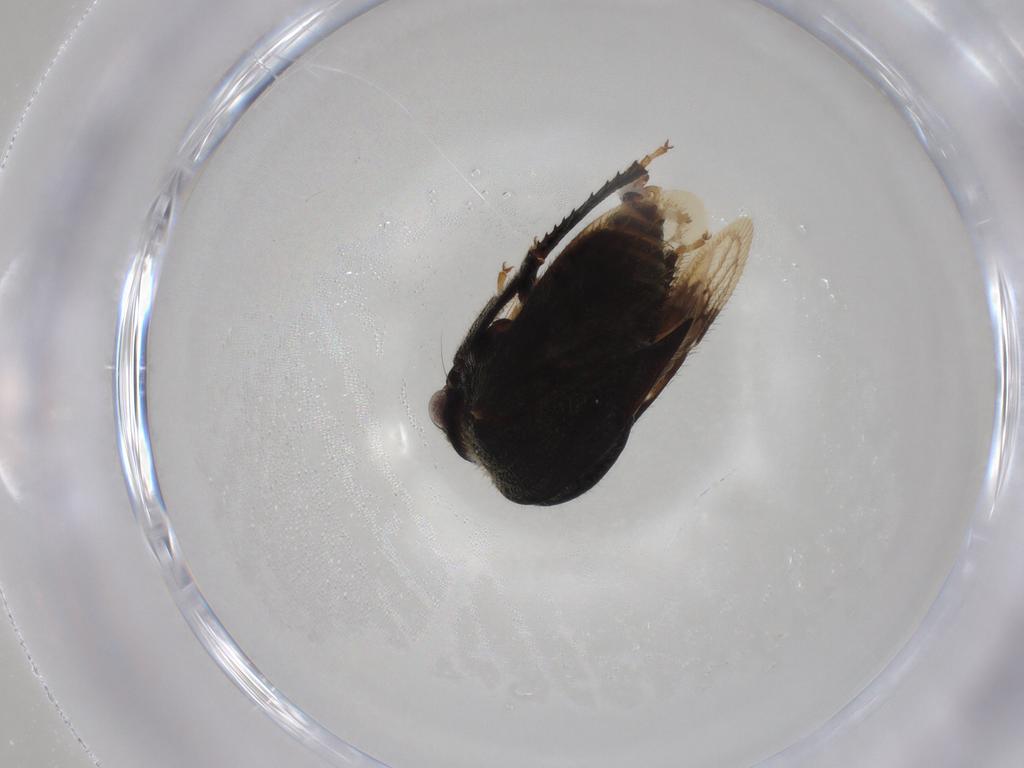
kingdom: Animalia
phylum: Arthropoda
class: Insecta
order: Hemiptera
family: Membracidae
